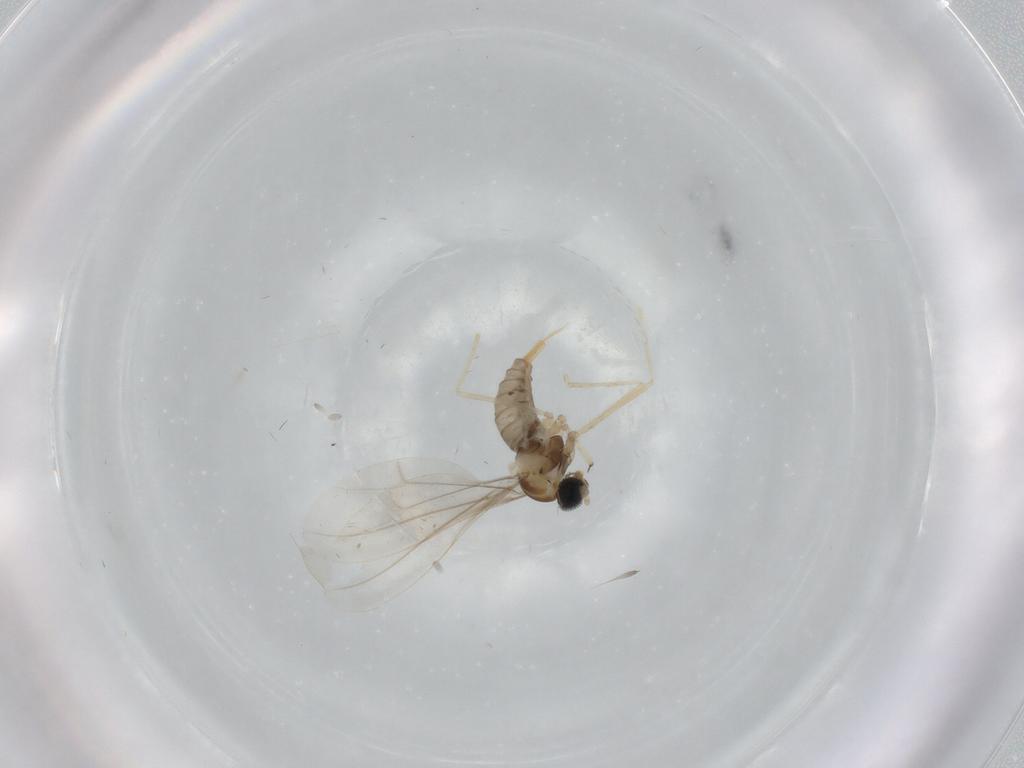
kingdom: Animalia
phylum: Arthropoda
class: Insecta
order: Diptera
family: Cecidomyiidae
